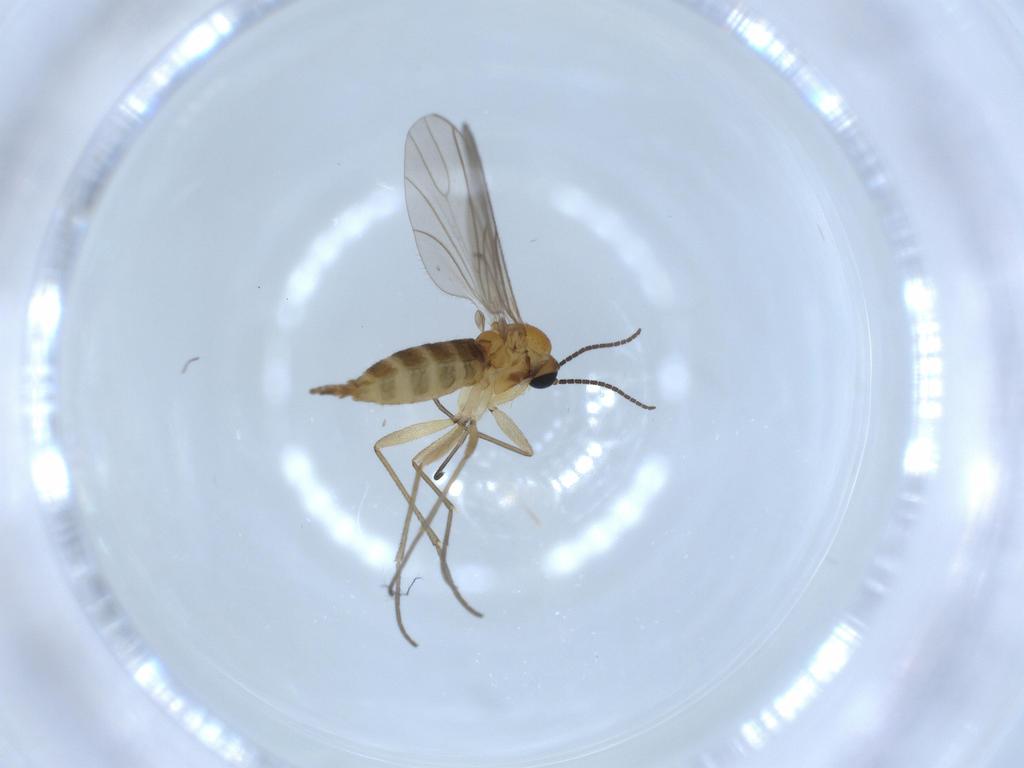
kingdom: Animalia
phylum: Arthropoda
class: Insecta
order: Diptera
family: Sciaridae
